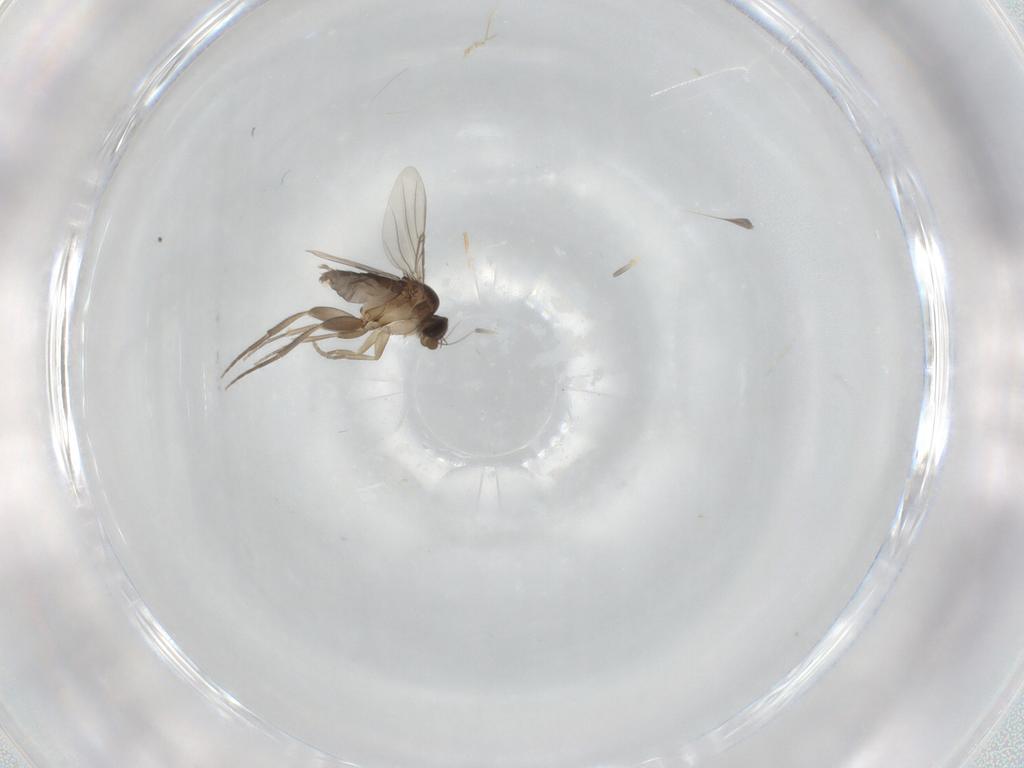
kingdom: Animalia
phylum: Arthropoda
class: Insecta
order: Diptera
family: Phoridae
